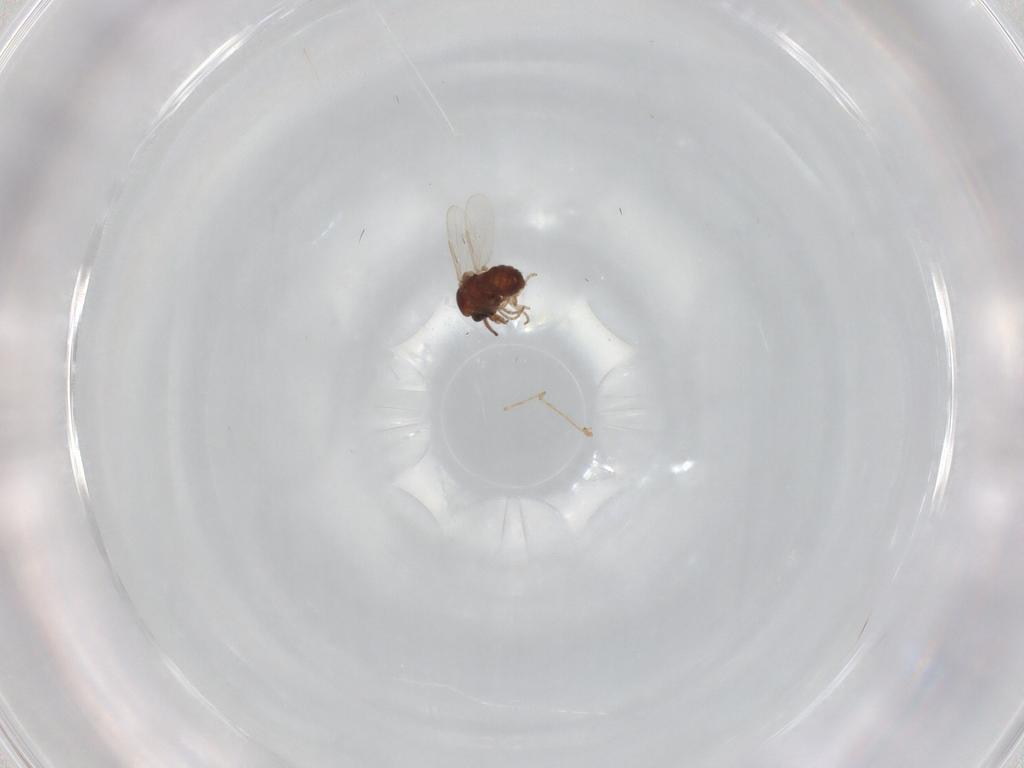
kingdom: Animalia
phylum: Arthropoda
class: Insecta
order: Diptera
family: Ceratopogonidae
